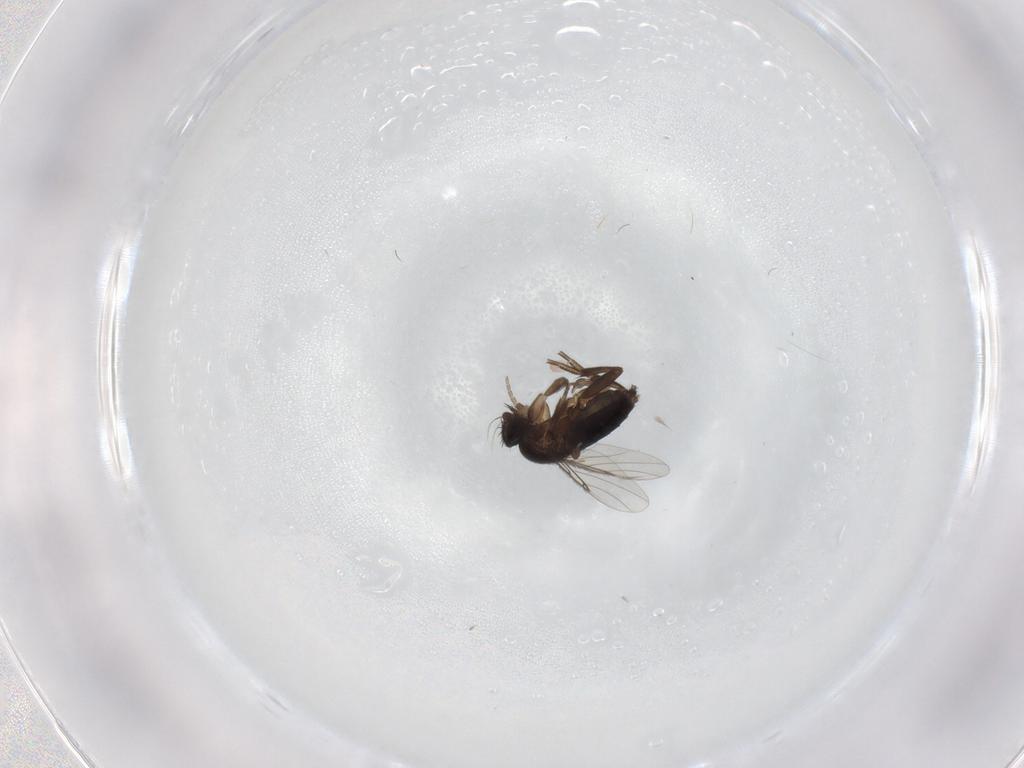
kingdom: Animalia
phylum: Arthropoda
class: Insecta
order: Diptera
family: Phoridae
